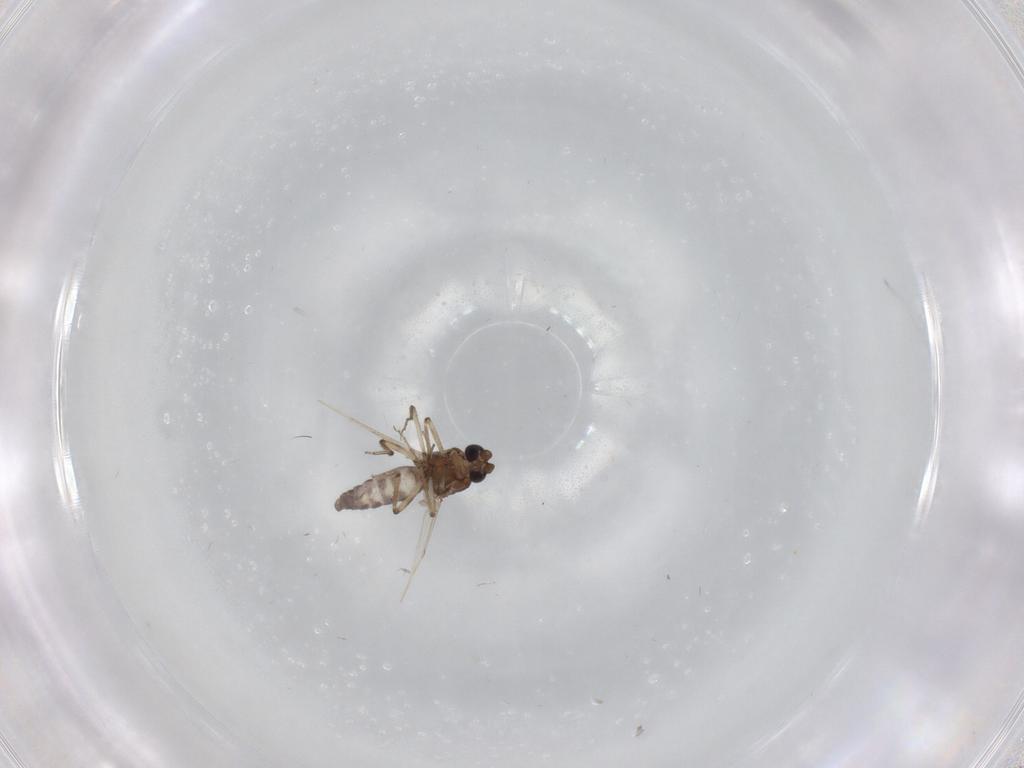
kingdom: Animalia
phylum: Arthropoda
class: Insecta
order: Diptera
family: Ceratopogonidae
